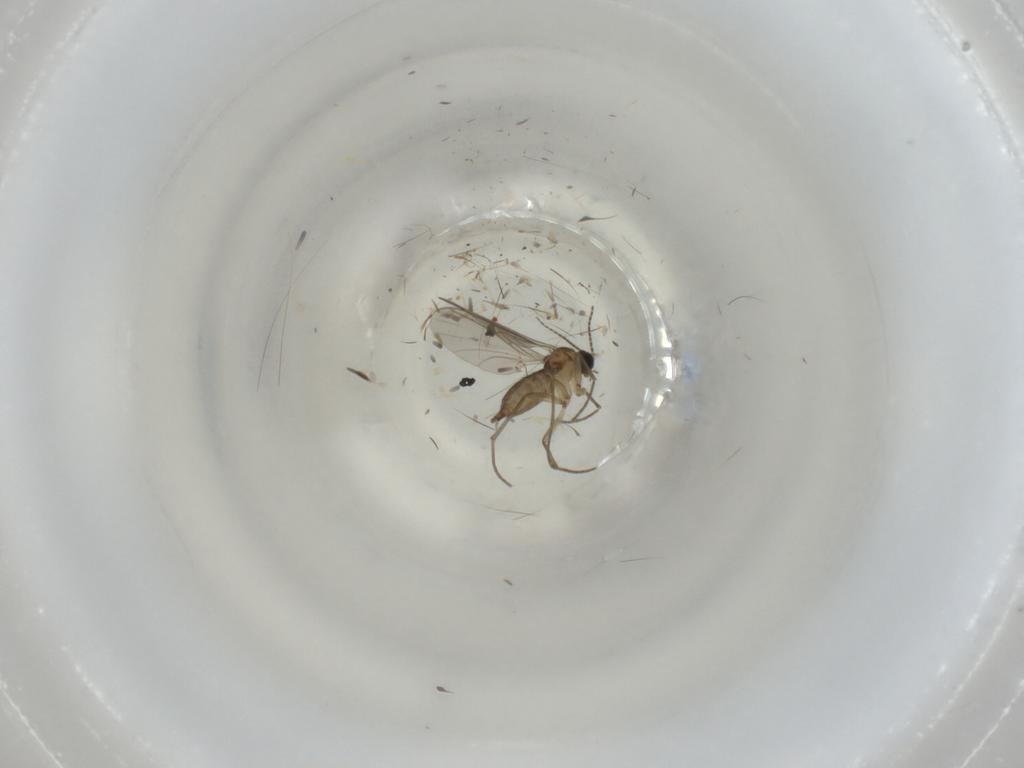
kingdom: Animalia
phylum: Arthropoda
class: Insecta
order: Diptera
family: Sciaridae
